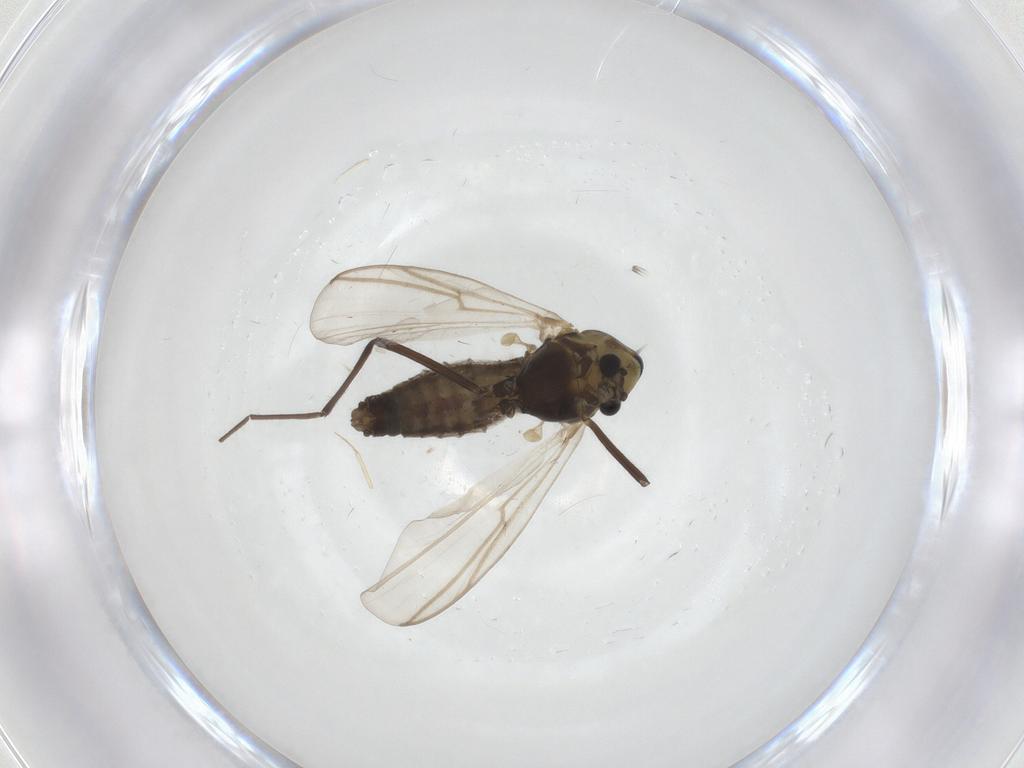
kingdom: Animalia
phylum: Arthropoda
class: Insecta
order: Diptera
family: Chironomidae
